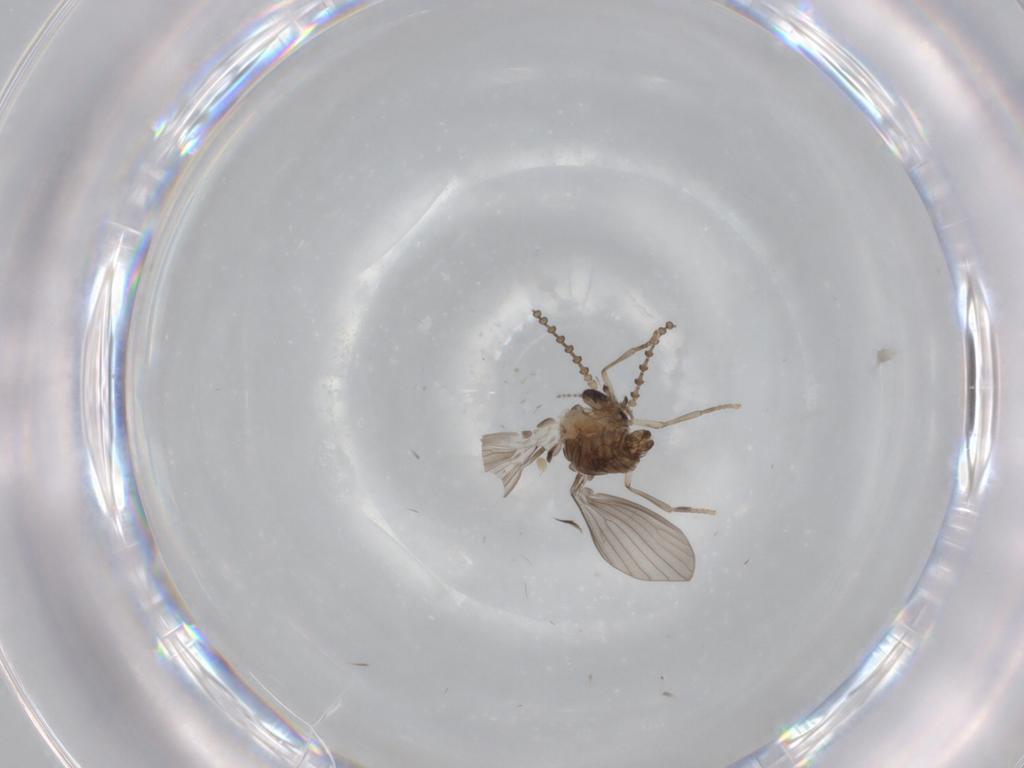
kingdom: Animalia
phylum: Arthropoda
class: Insecta
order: Diptera
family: Psychodidae
